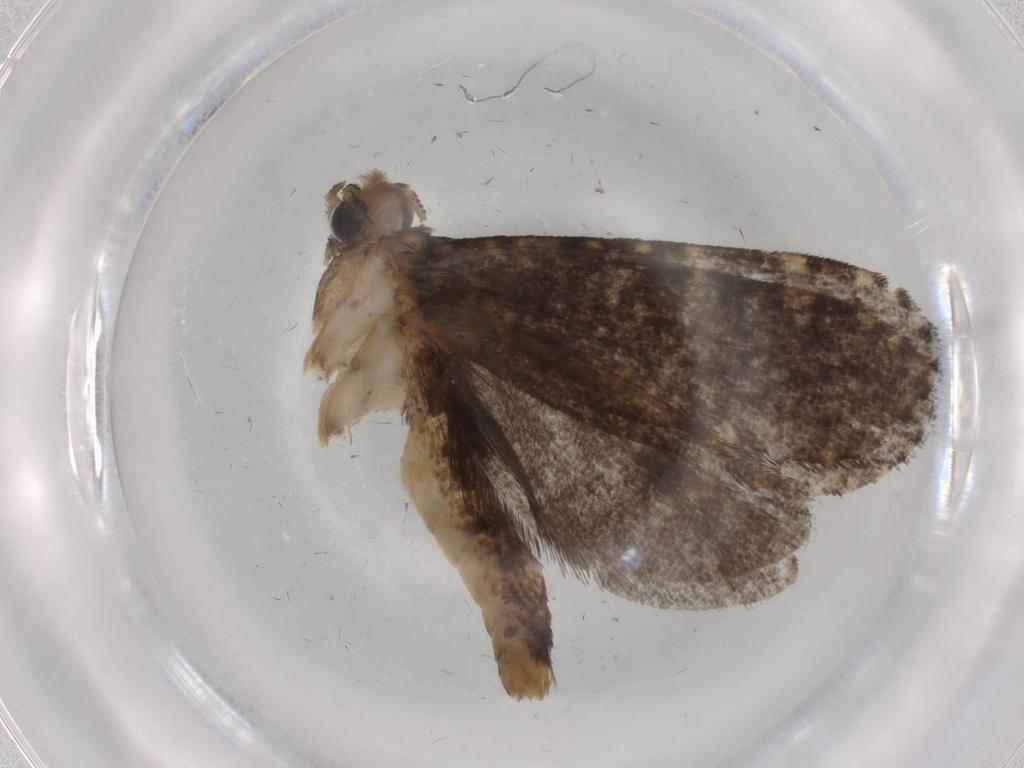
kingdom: Animalia
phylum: Arthropoda
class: Insecta
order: Lepidoptera
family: Tineidae
